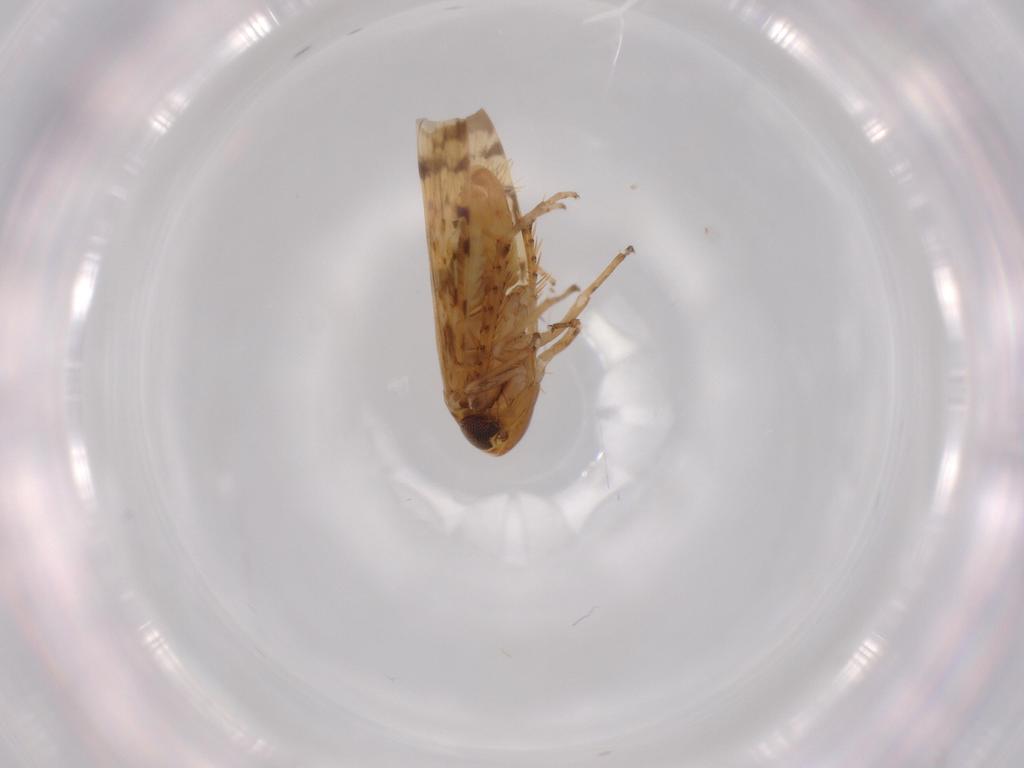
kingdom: Animalia
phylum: Arthropoda
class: Insecta
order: Hemiptera
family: Cicadellidae
